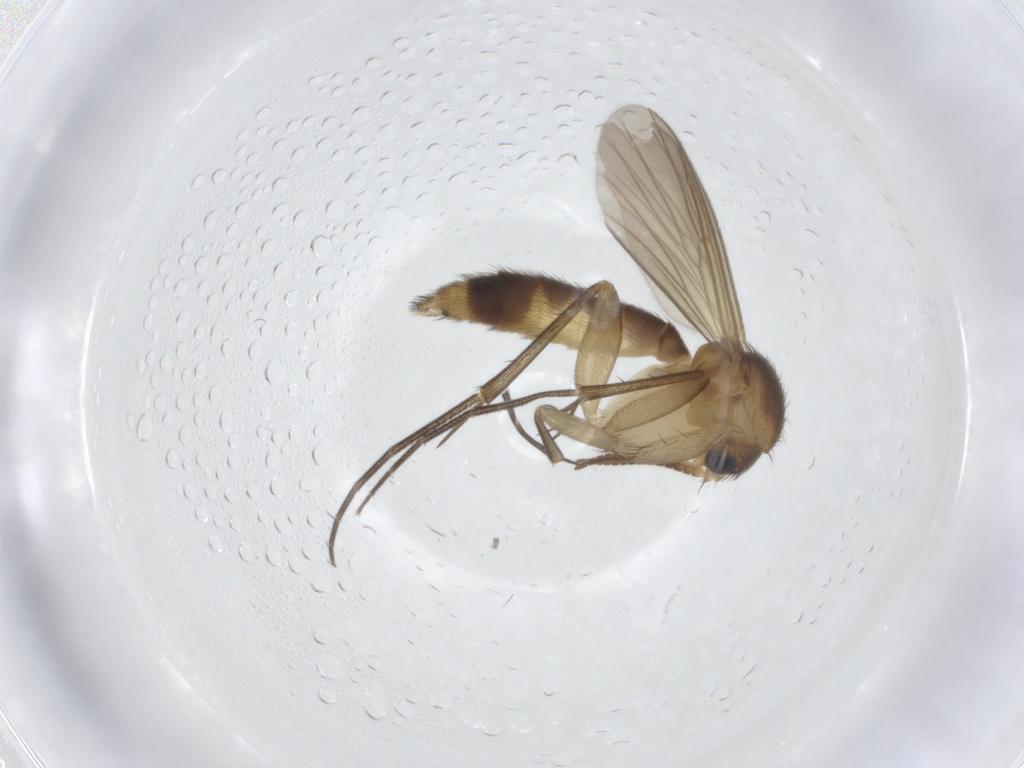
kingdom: Animalia
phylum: Arthropoda
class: Insecta
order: Diptera
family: Mycetophilidae
